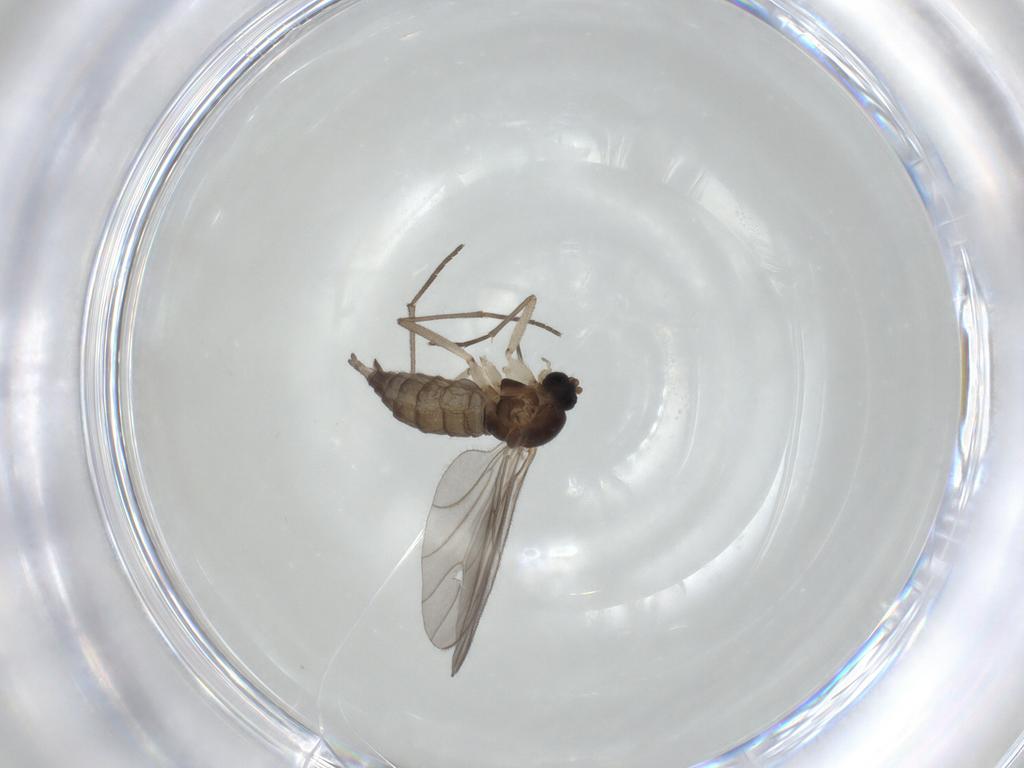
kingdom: Animalia
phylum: Arthropoda
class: Insecta
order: Diptera
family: Sciaridae
